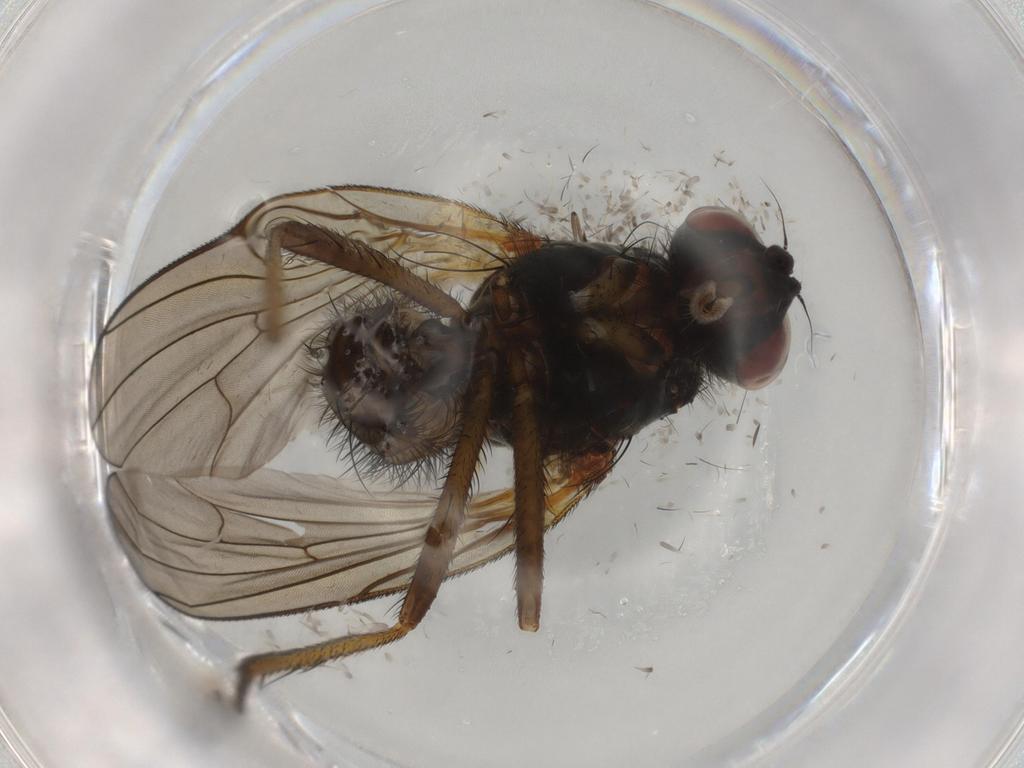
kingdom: Animalia
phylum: Arthropoda
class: Insecta
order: Diptera
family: Anthomyiidae
